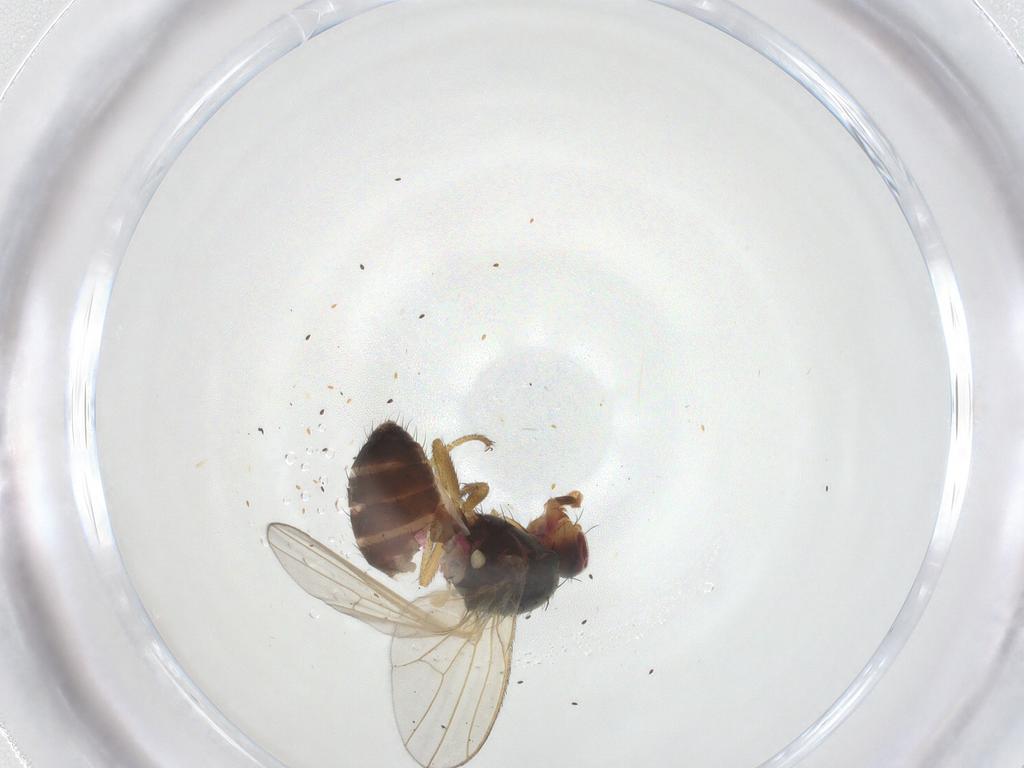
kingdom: Animalia
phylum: Arthropoda
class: Insecta
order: Diptera
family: Heleomyzidae
